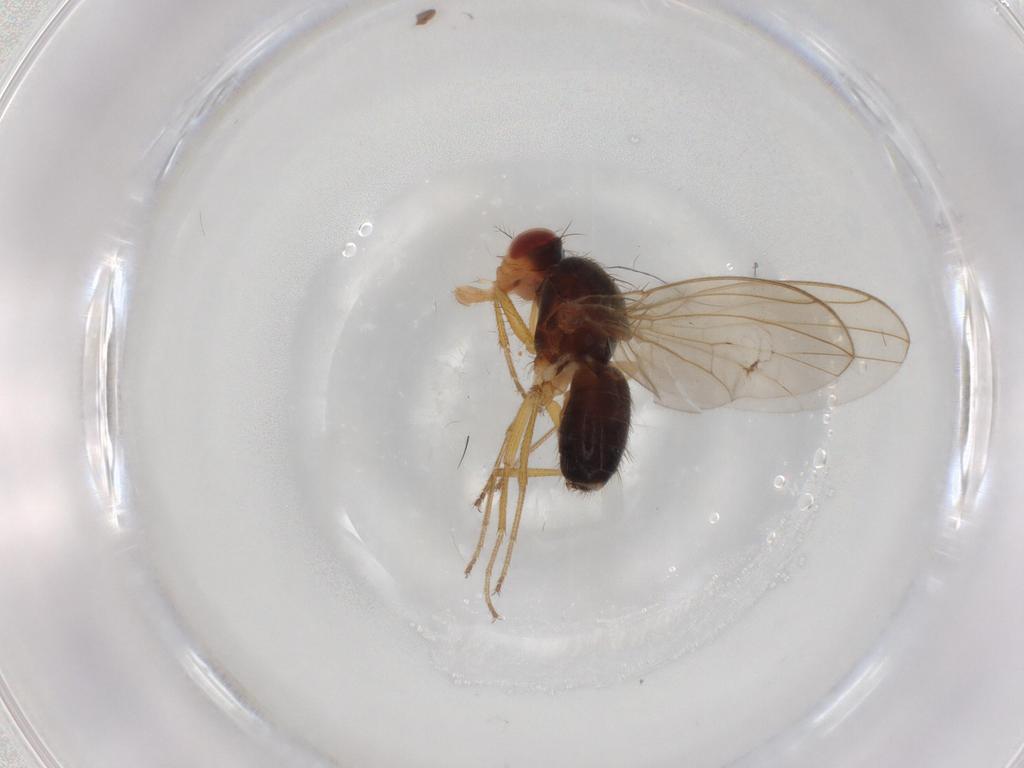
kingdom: Animalia
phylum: Arthropoda
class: Insecta
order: Diptera
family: Drosophilidae
